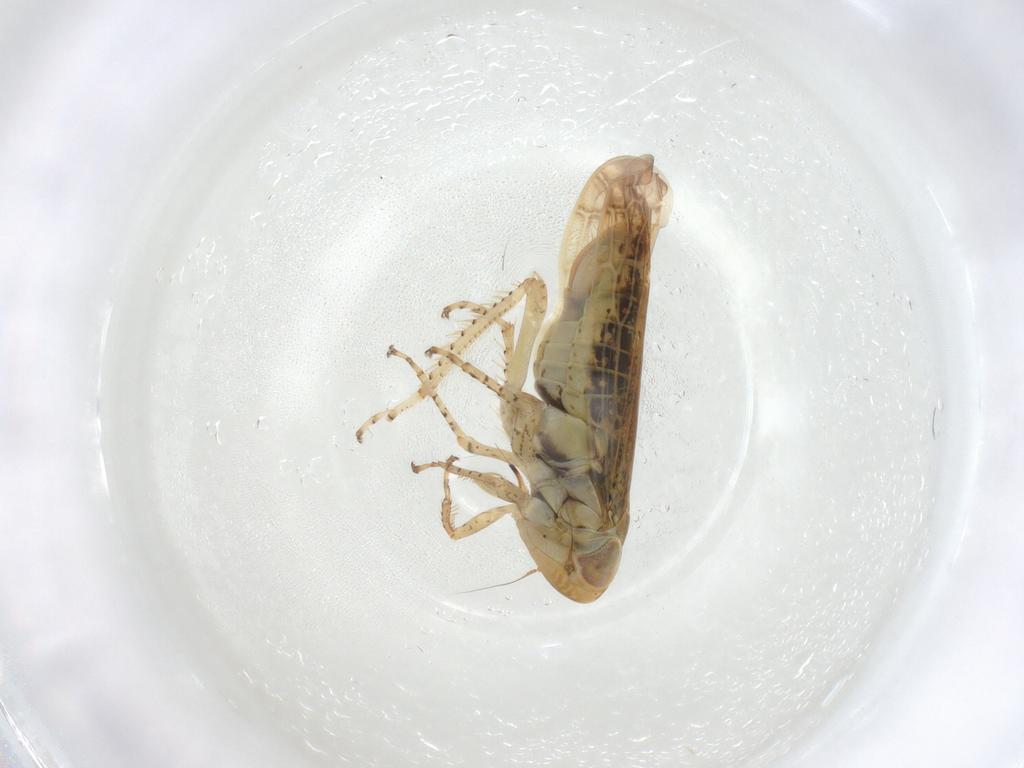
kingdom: Animalia
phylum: Arthropoda
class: Insecta
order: Hemiptera
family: Cicadellidae
